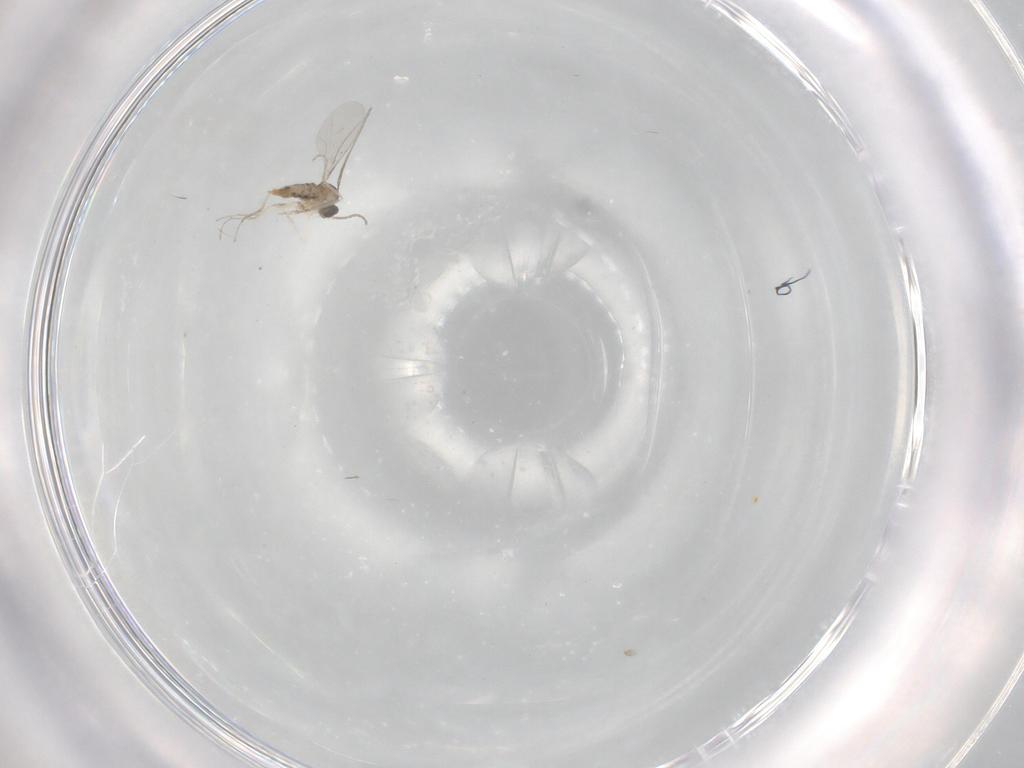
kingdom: Animalia
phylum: Arthropoda
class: Insecta
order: Diptera
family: Cecidomyiidae
